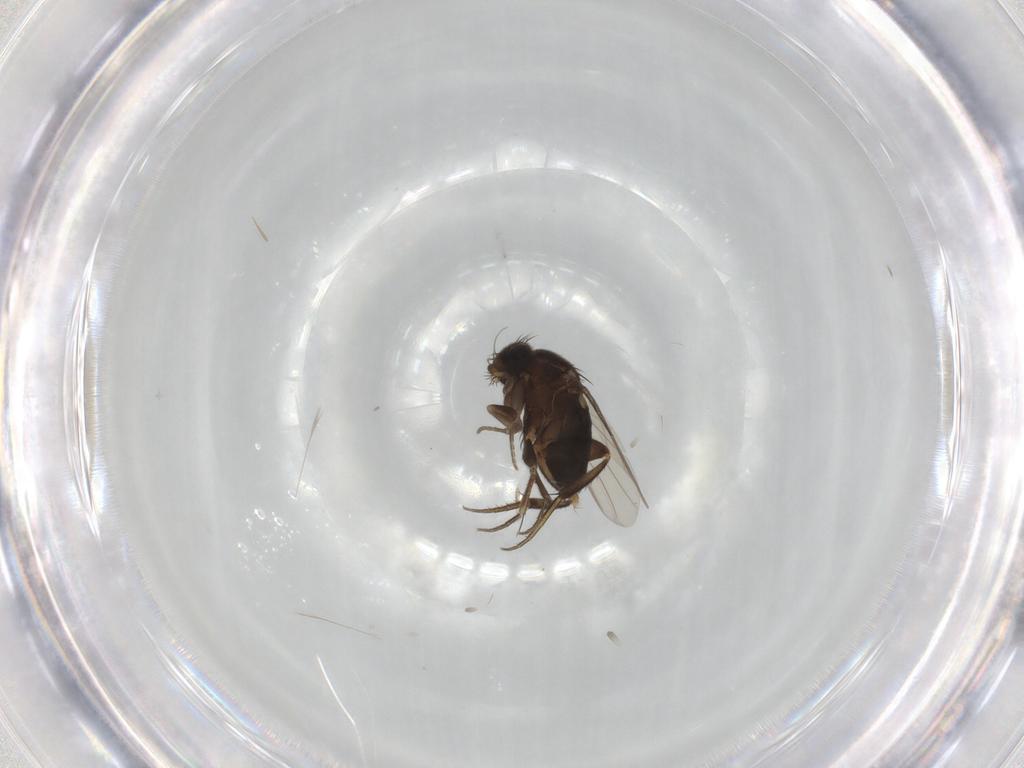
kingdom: Animalia
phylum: Arthropoda
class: Insecta
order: Diptera
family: Phoridae
